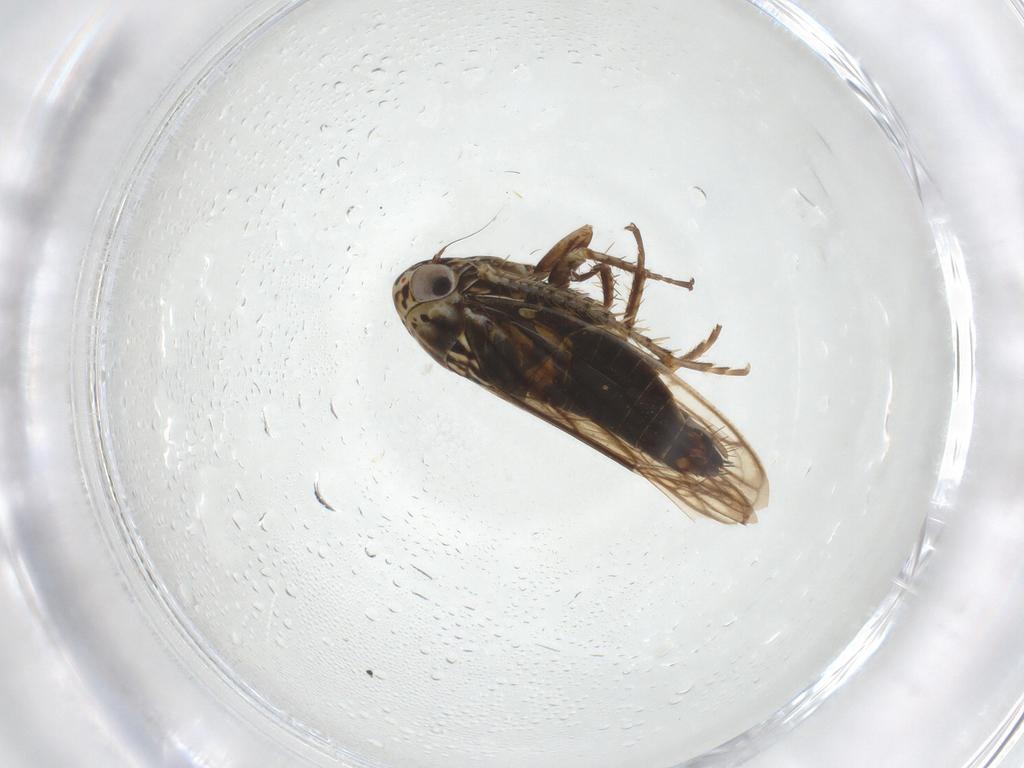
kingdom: Animalia
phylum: Arthropoda
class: Insecta
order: Hemiptera
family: Aphididae
